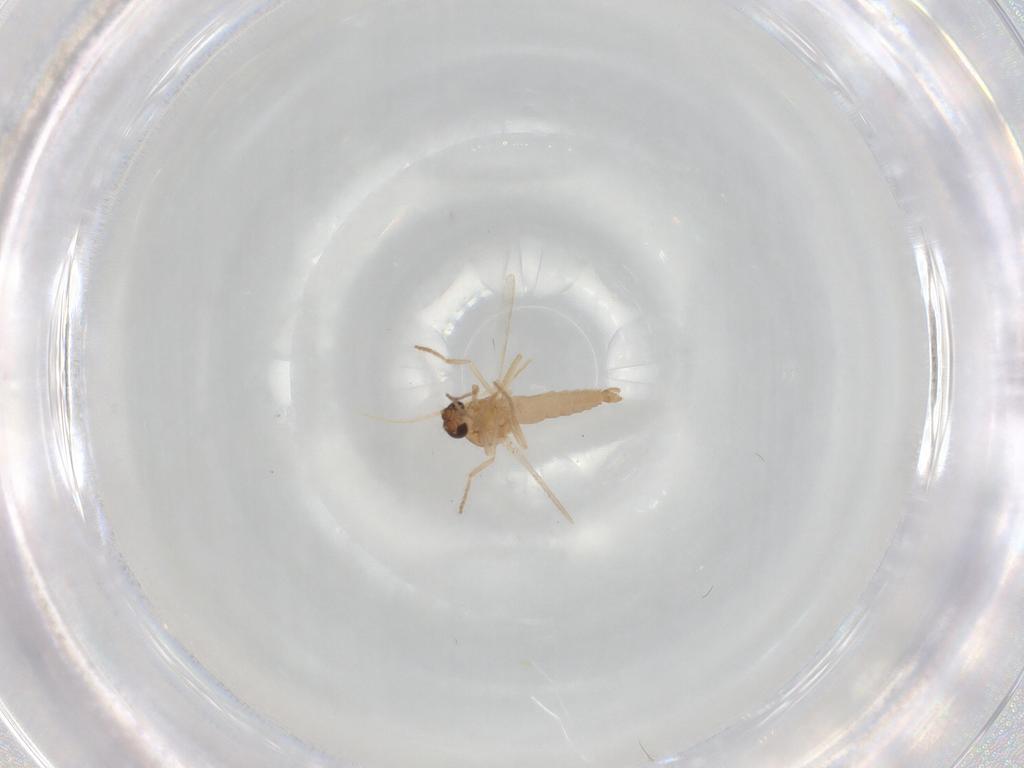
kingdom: Animalia
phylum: Arthropoda
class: Insecta
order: Diptera
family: Ceratopogonidae
